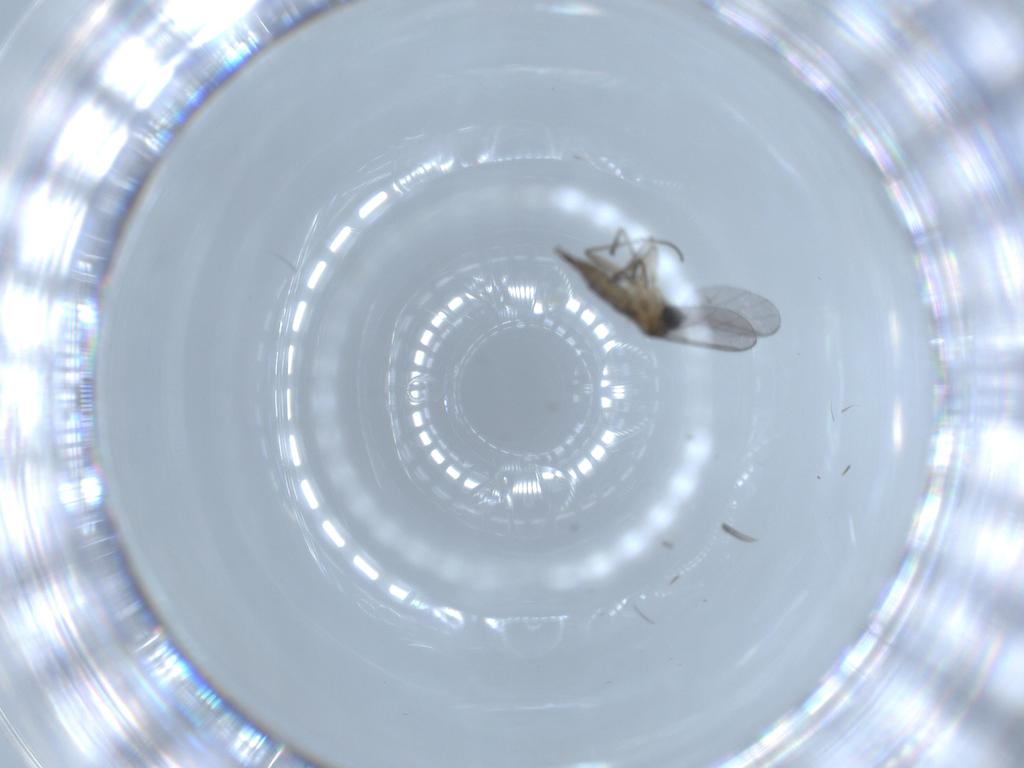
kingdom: Animalia
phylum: Arthropoda
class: Insecta
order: Diptera
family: Sciaridae
